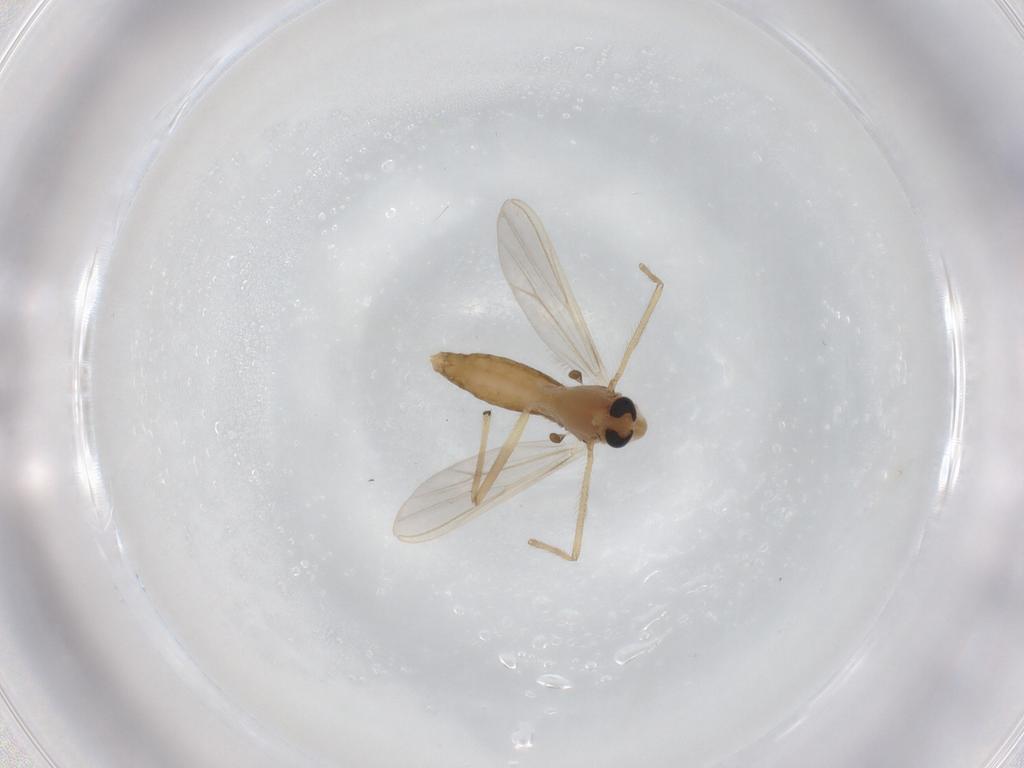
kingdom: Animalia
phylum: Arthropoda
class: Insecta
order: Diptera
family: Chironomidae
